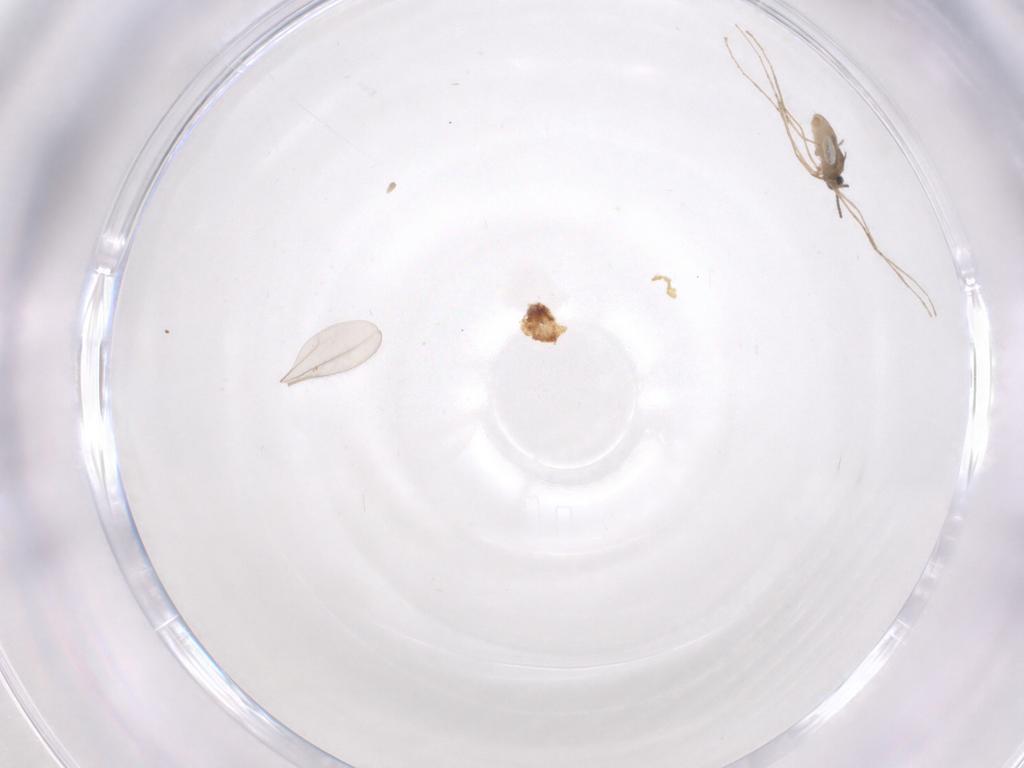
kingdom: Animalia
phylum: Arthropoda
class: Insecta
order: Diptera
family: Cecidomyiidae
